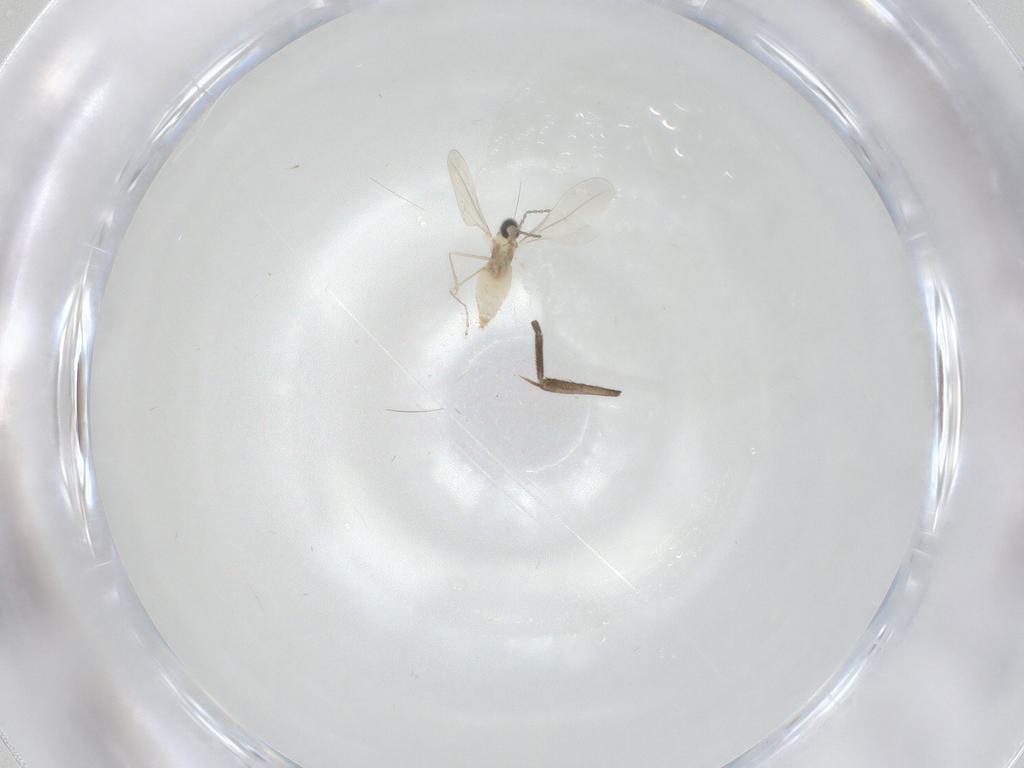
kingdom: Animalia
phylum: Arthropoda
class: Insecta
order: Diptera
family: Mycetophilidae
